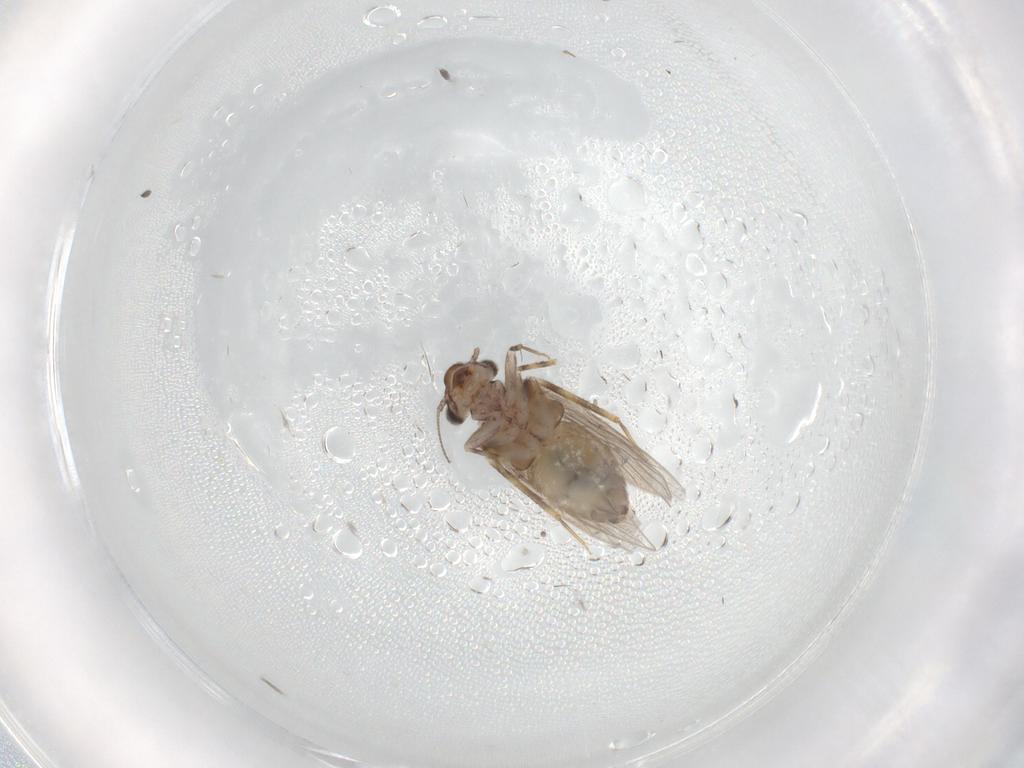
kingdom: Animalia
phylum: Arthropoda
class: Insecta
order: Psocodea
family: Lepidopsocidae
